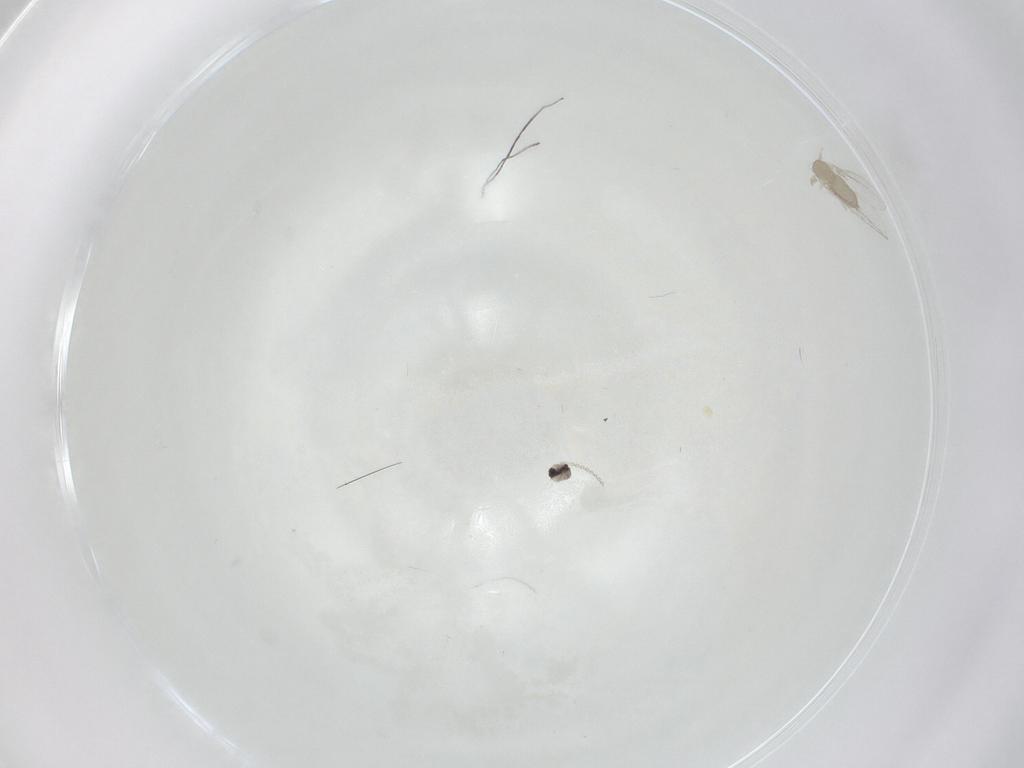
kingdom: Animalia
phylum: Arthropoda
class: Insecta
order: Diptera
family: Cecidomyiidae
